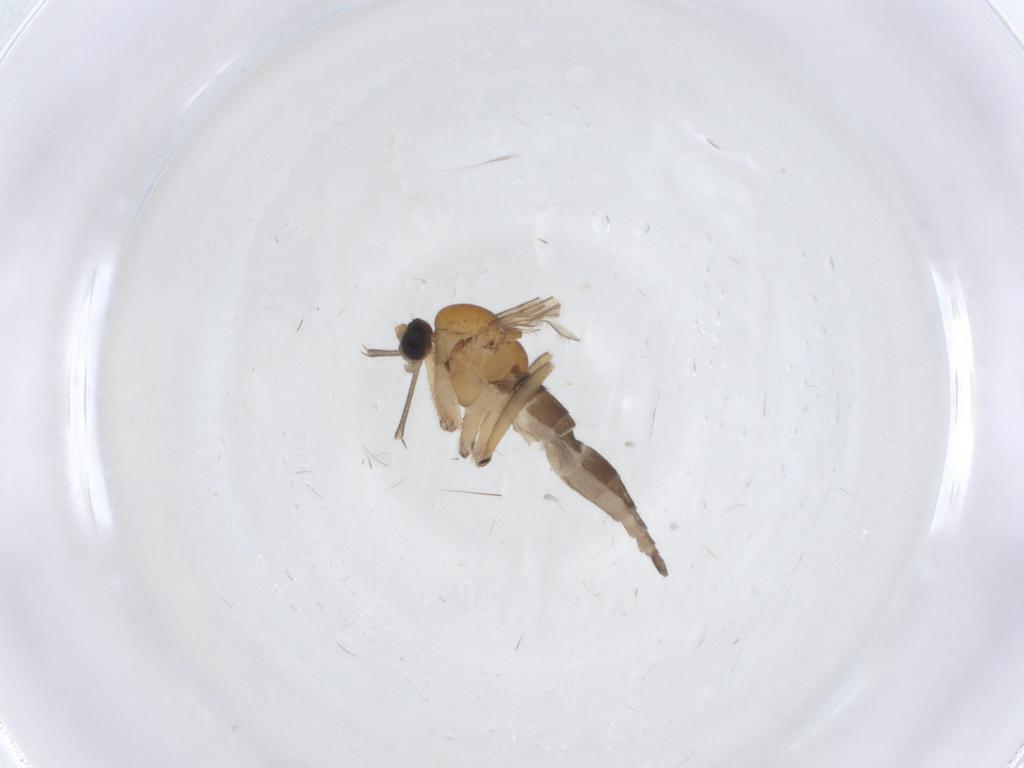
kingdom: Animalia
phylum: Arthropoda
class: Insecta
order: Diptera
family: Sciaridae
